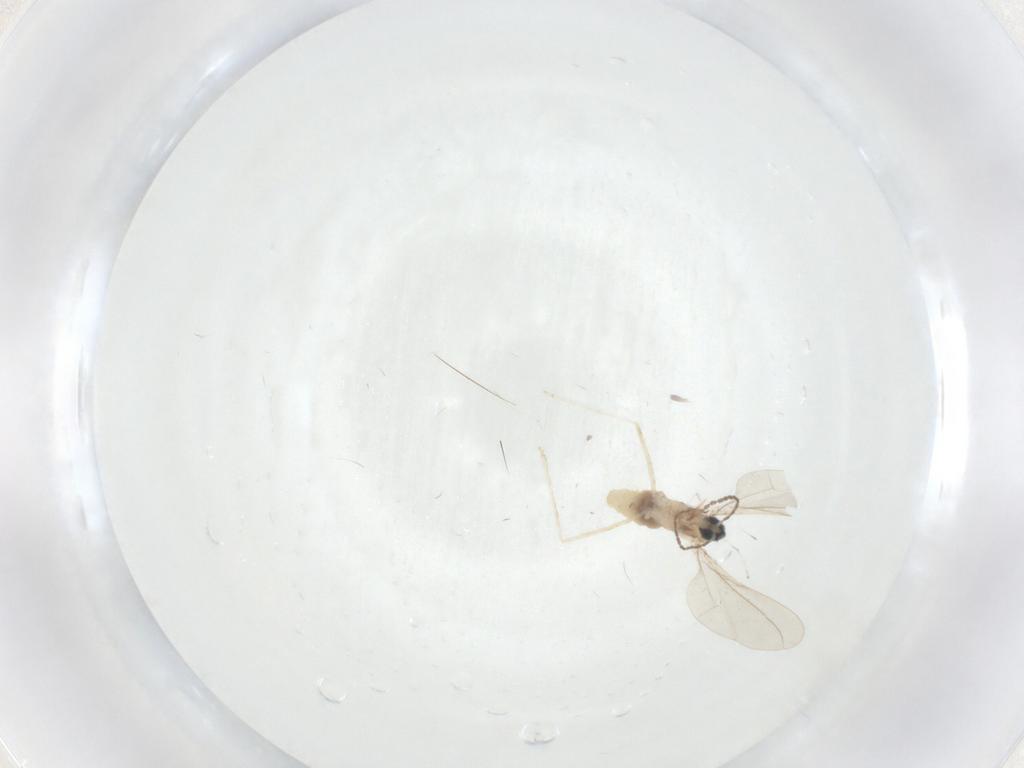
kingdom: Animalia
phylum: Arthropoda
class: Insecta
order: Diptera
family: Cecidomyiidae
